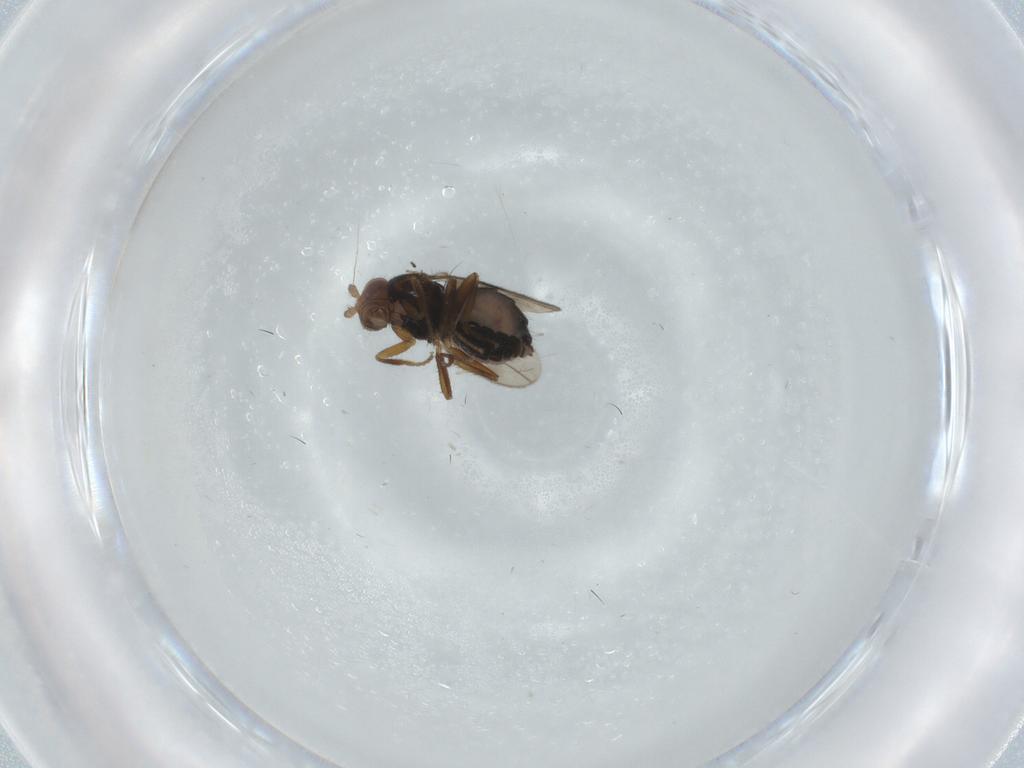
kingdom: Animalia
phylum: Arthropoda
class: Insecta
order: Diptera
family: Sphaeroceridae
